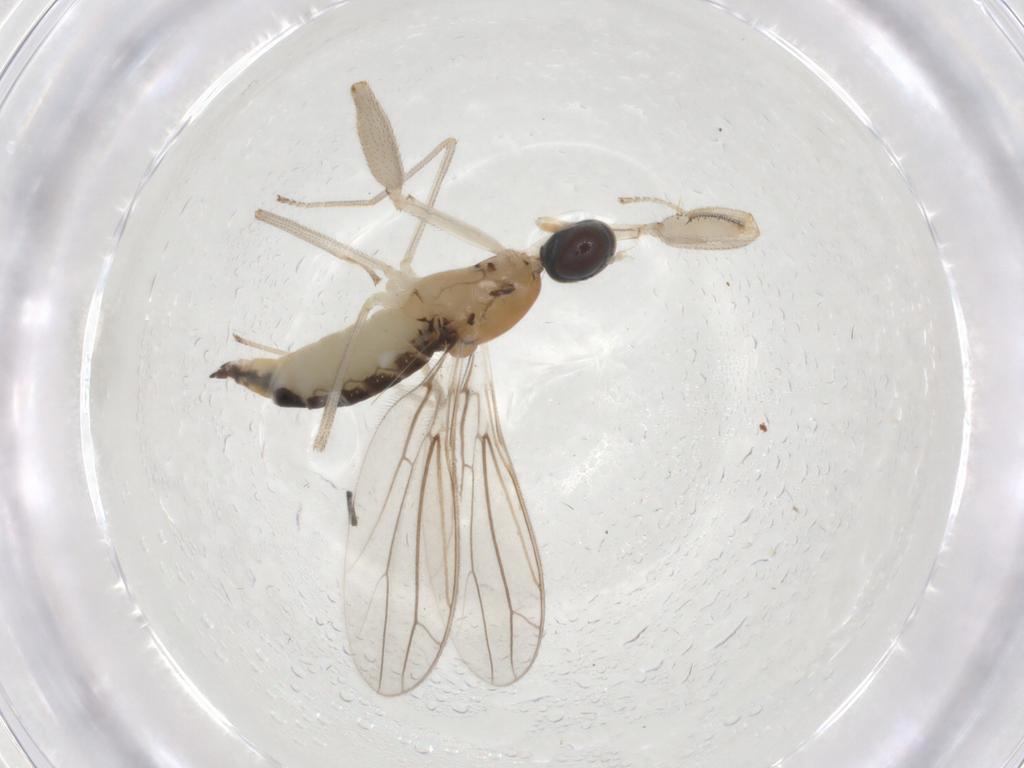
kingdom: Animalia
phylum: Arthropoda
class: Insecta
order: Diptera
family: Empididae
